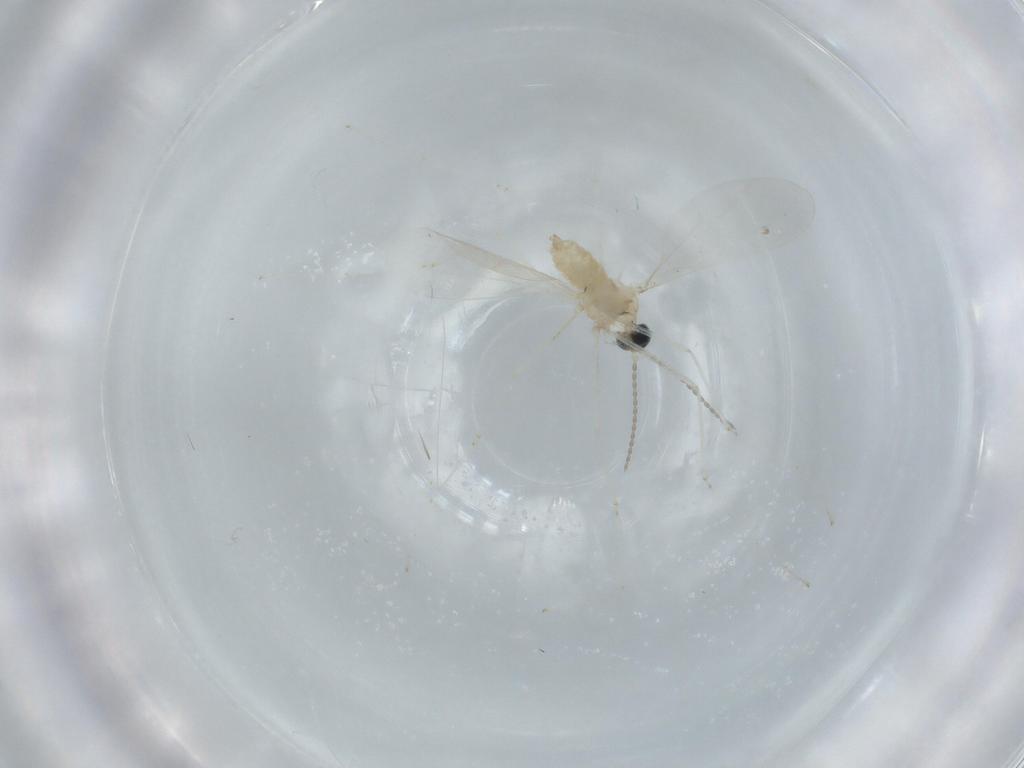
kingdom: Animalia
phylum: Arthropoda
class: Insecta
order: Diptera
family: Cecidomyiidae
